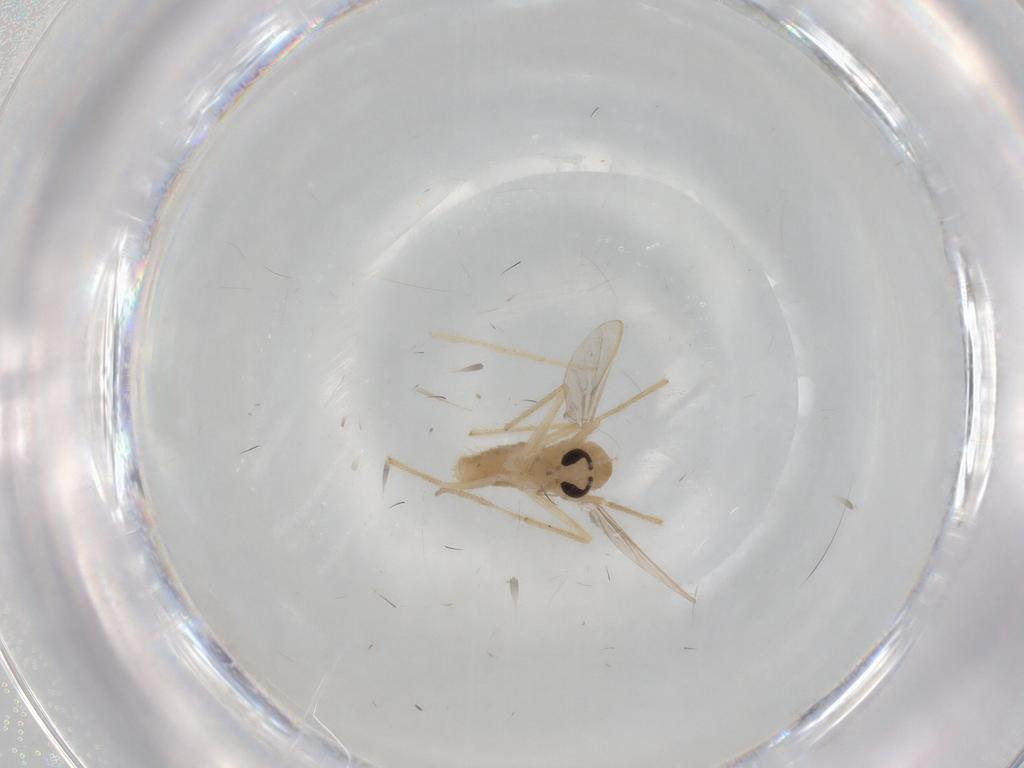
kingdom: Animalia
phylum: Arthropoda
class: Insecta
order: Diptera
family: Chironomidae
